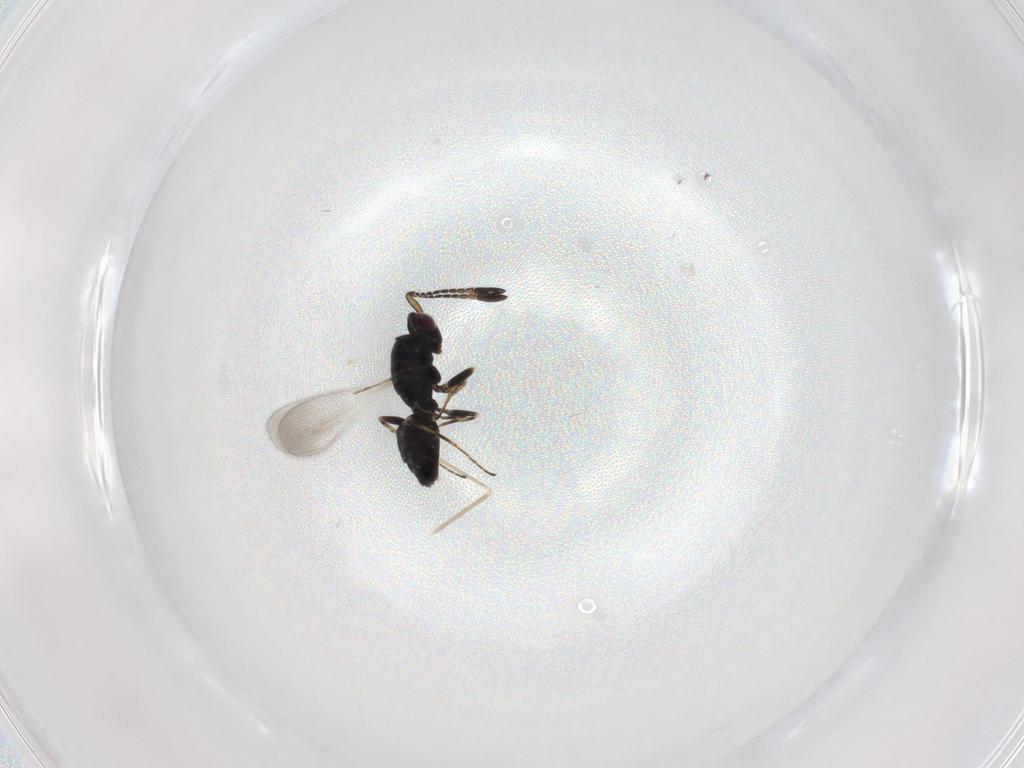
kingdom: Animalia
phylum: Arthropoda
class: Insecta
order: Hymenoptera
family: Mymaridae
